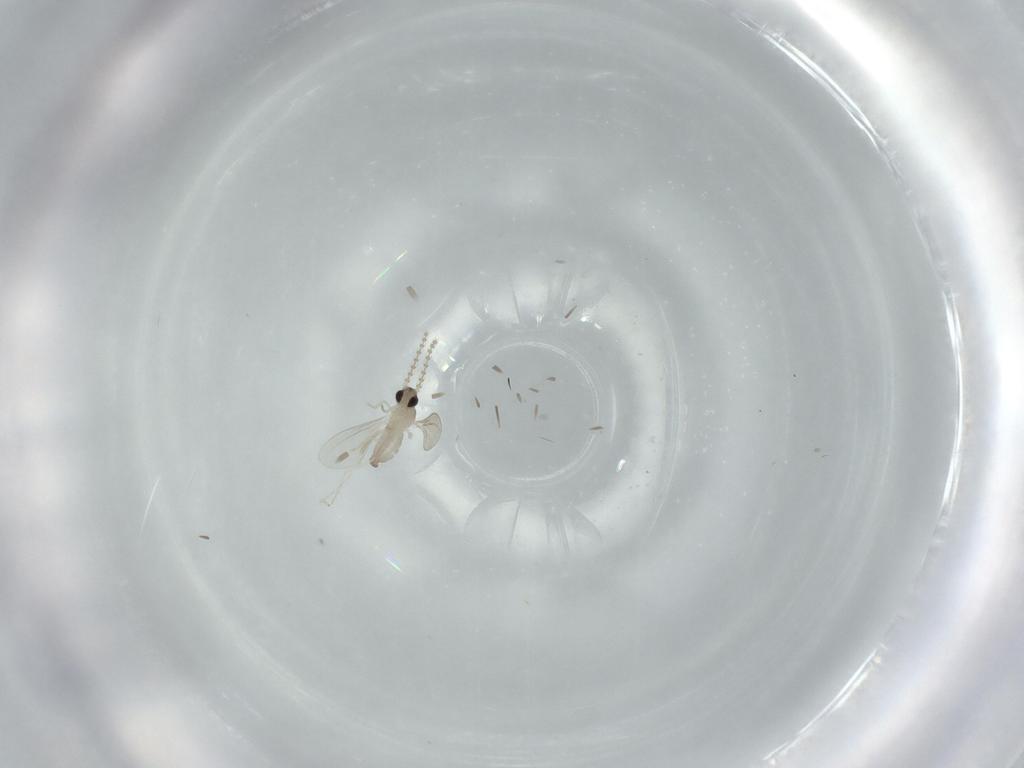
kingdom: Animalia
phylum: Arthropoda
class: Insecta
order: Diptera
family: Cecidomyiidae
